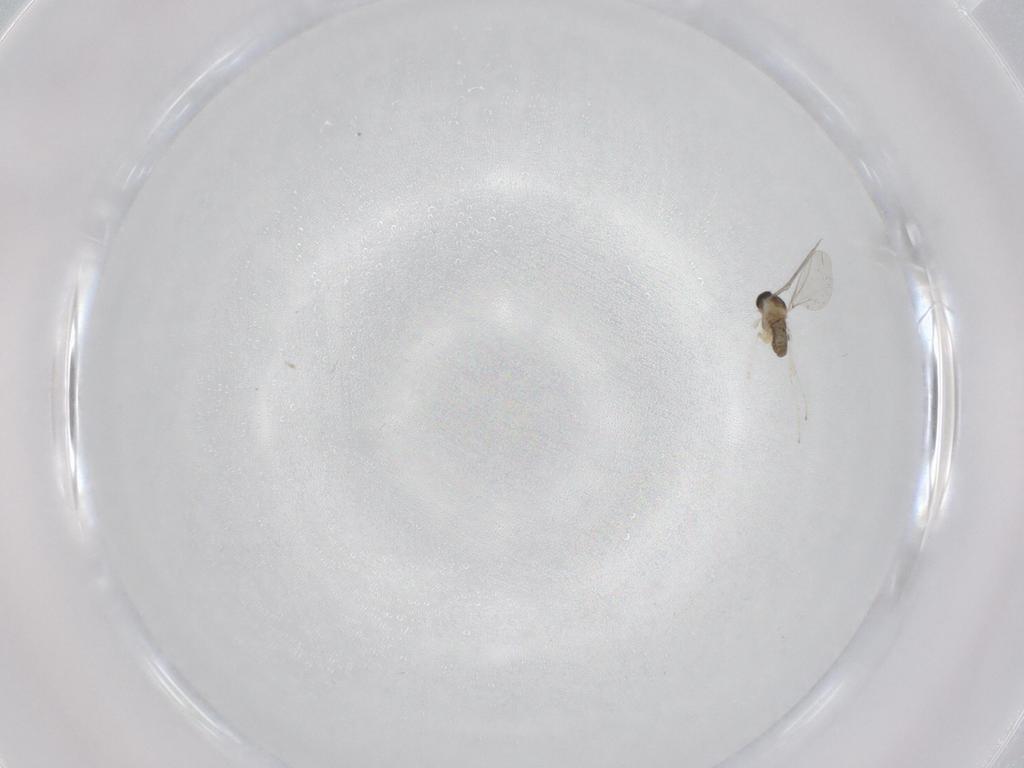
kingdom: Animalia
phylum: Arthropoda
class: Insecta
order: Diptera
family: Cecidomyiidae
